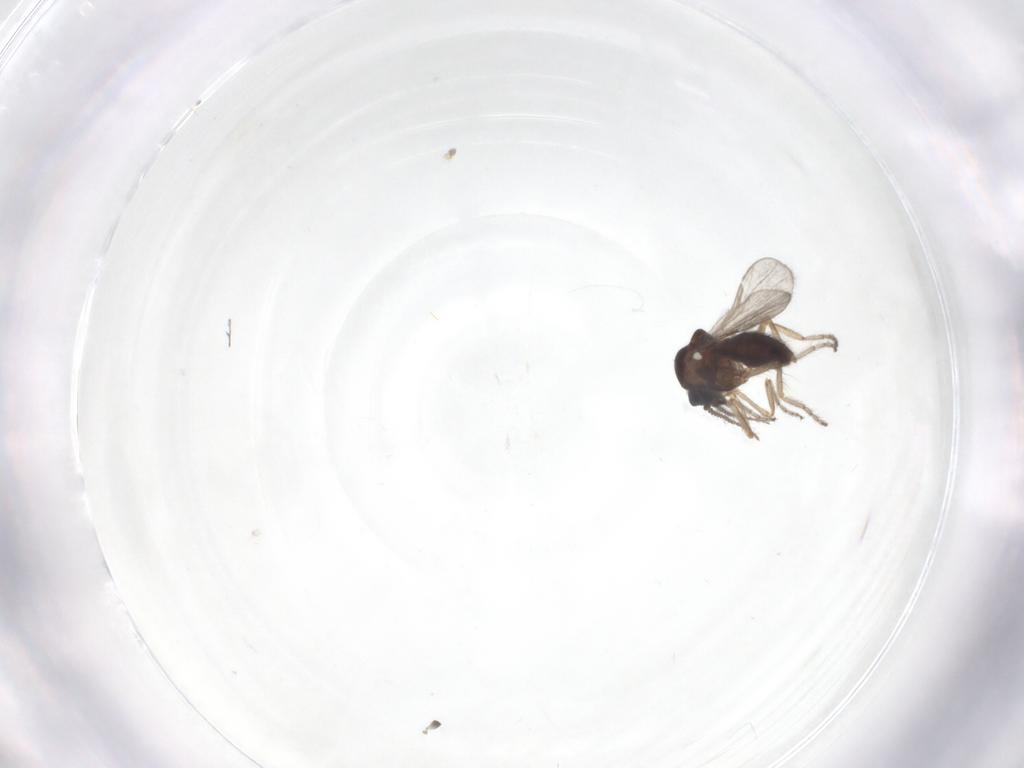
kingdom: Animalia
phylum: Arthropoda
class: Insecta
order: Diptera
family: Ceratopogonidae
